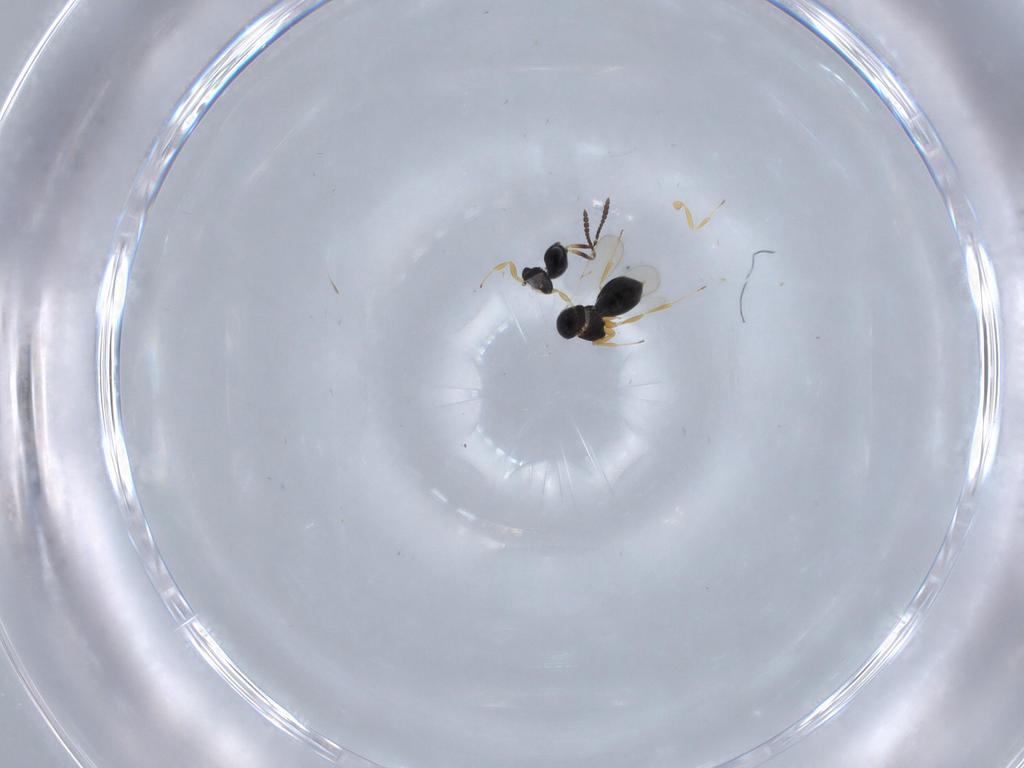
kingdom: Animalia
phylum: Arthropoda
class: Insecta
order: Hymenoptera
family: Scelionidae
